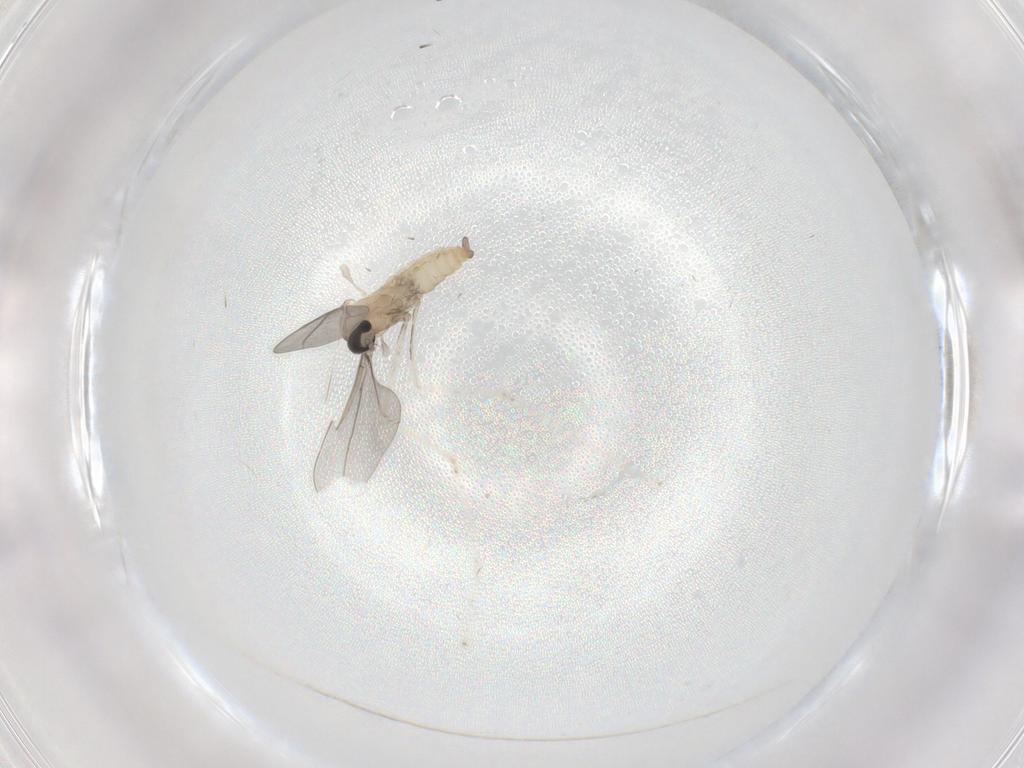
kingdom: Animalia
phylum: Arthropoda
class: Insecta
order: Diptera
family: Cecidomyiidae
